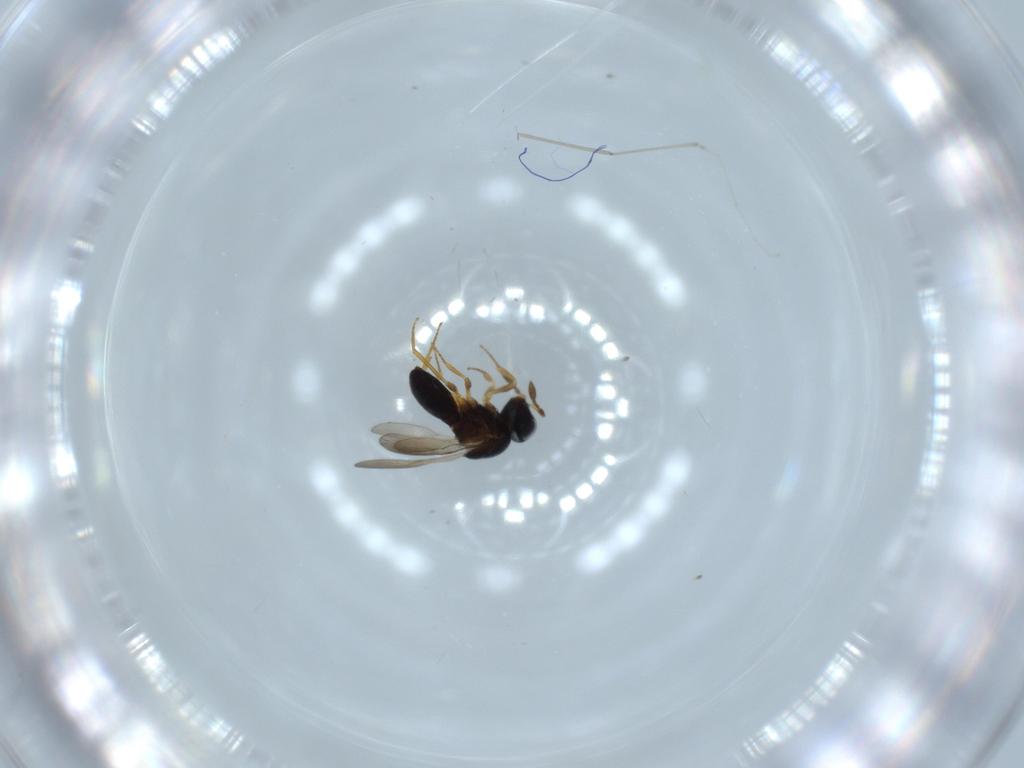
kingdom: Animalia
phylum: Arthropoda
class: Insecta
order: Hymenoptera
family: Scelionidae
